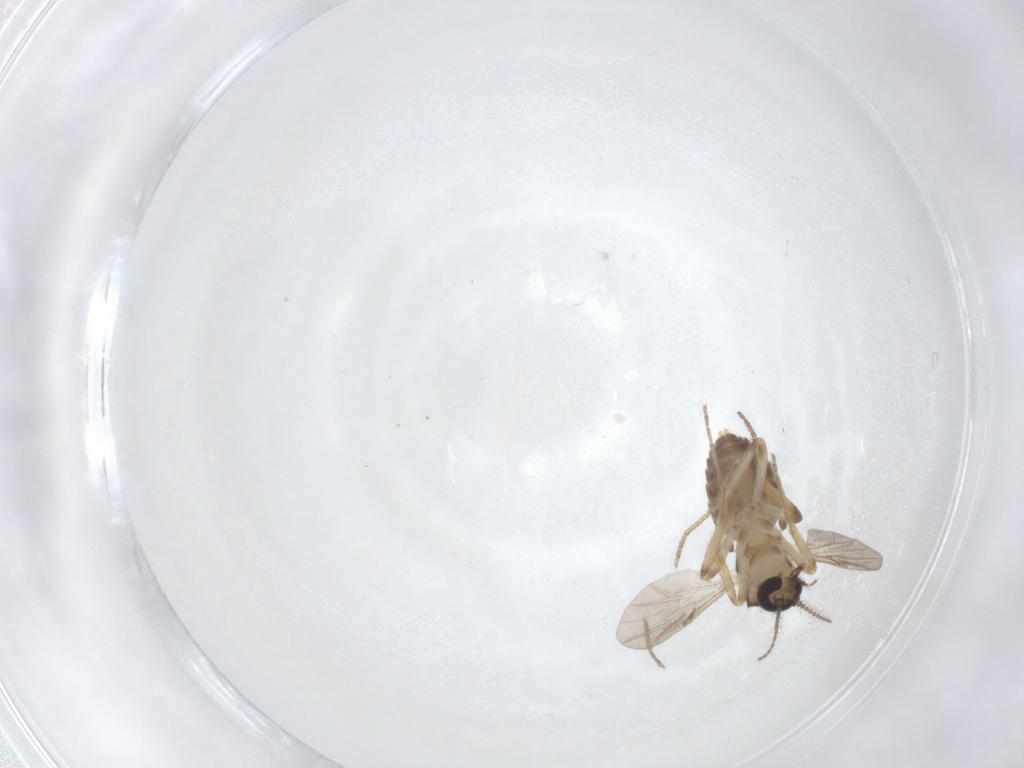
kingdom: Animalia
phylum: Arthropoda
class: Insecta
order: Diptera
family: Ceratopogonidae
